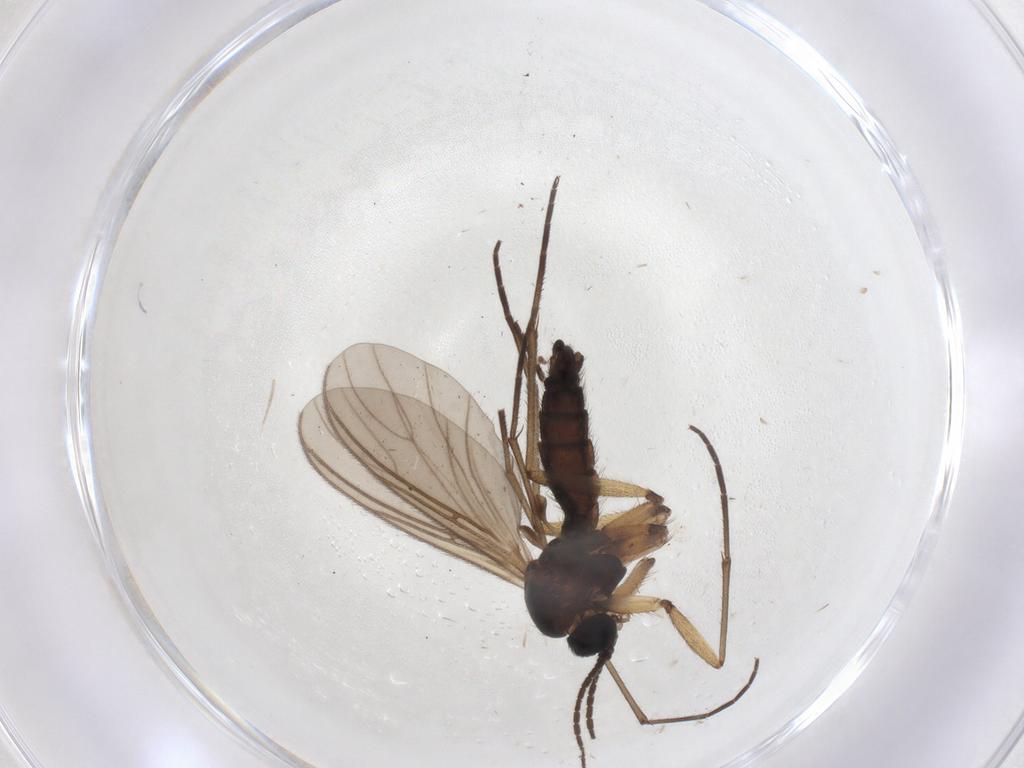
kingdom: Animalia
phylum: Arthropoda
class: Insecta
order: Diptera
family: Sciaridae
